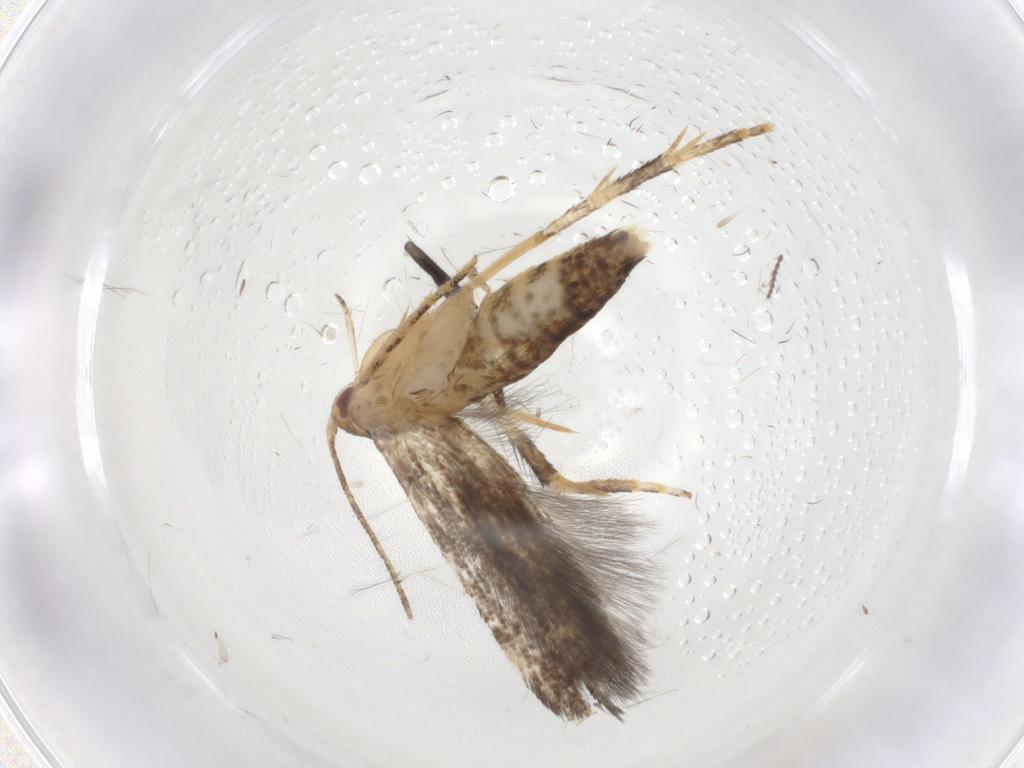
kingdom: Animalia
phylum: Arthropoda
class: Insecta
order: Lepidoptera
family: Momphidae
